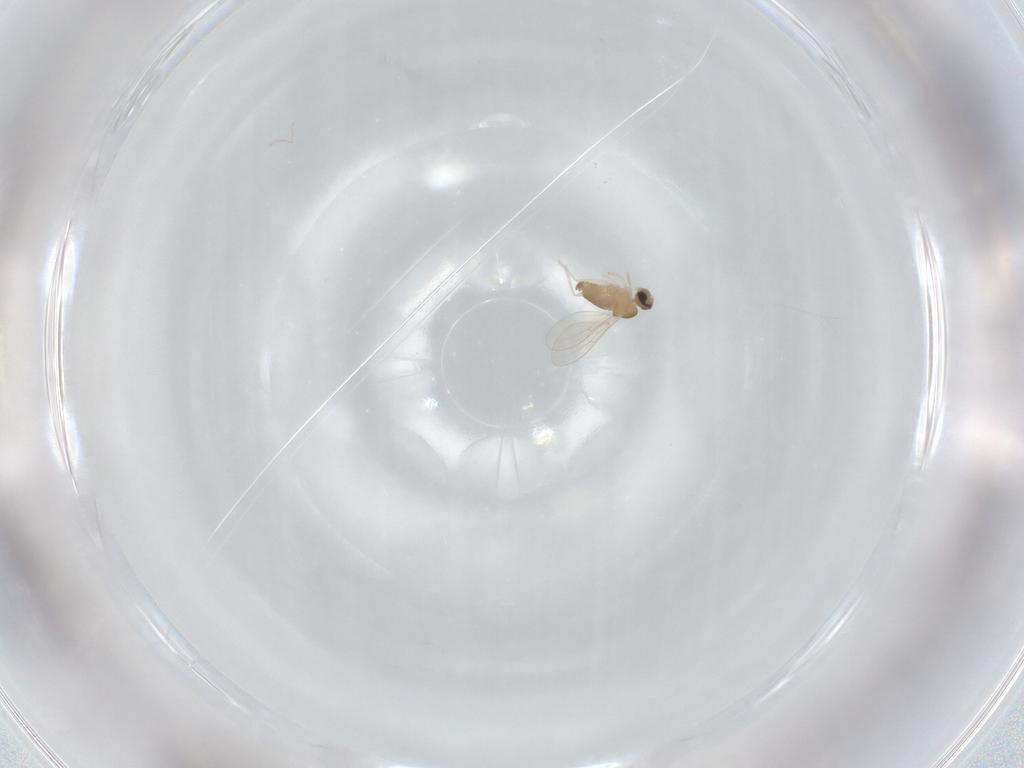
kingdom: Animalia
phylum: Arthropoda
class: Insecta
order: Diptera
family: Cecidomyiidae
